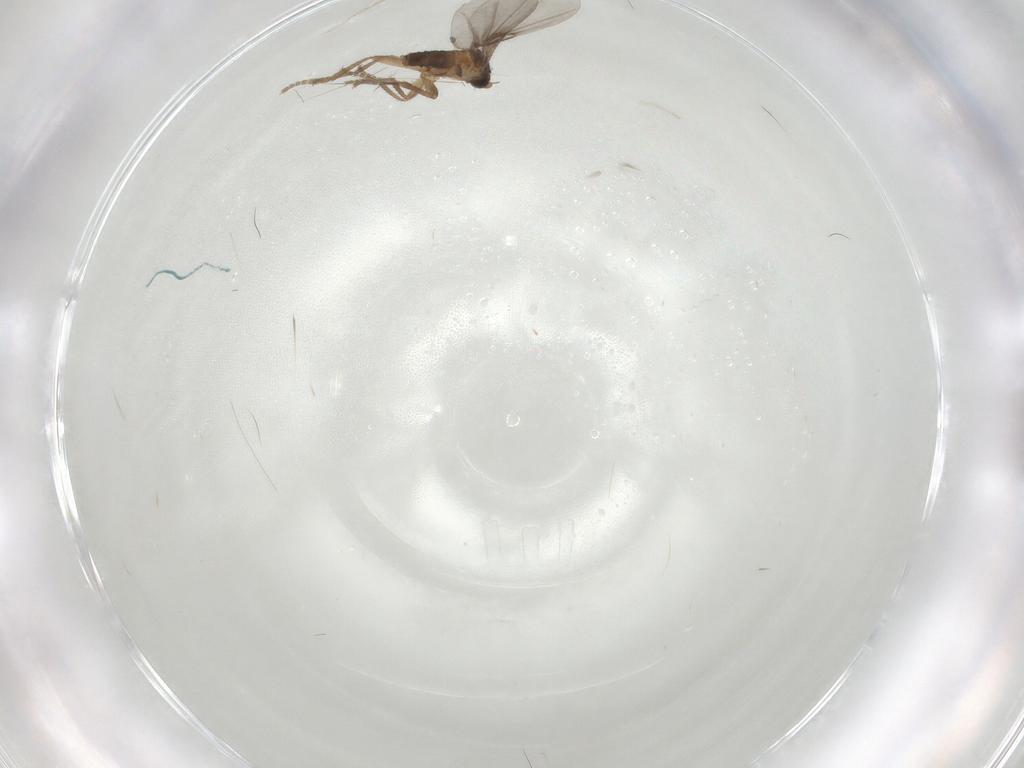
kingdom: Animalia
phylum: Arthropoda
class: Insecta
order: Diptera
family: Phoridae
